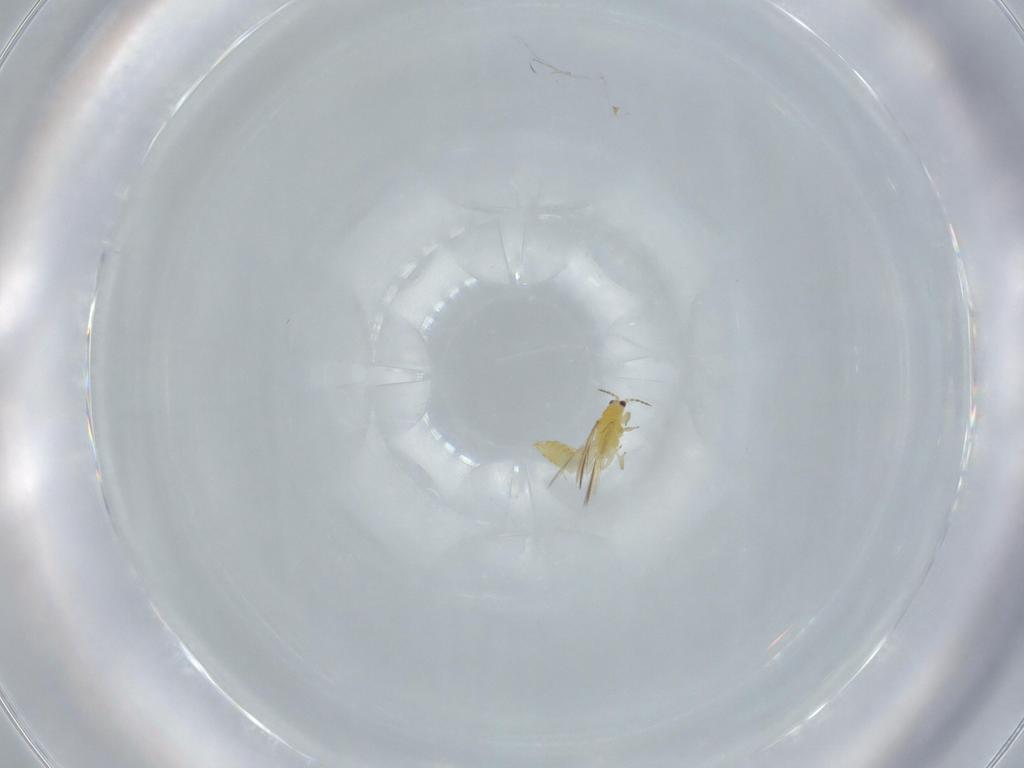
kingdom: Animalia
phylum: Arthropoda
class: Insecta
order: Thysanoptera
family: Thripidae
